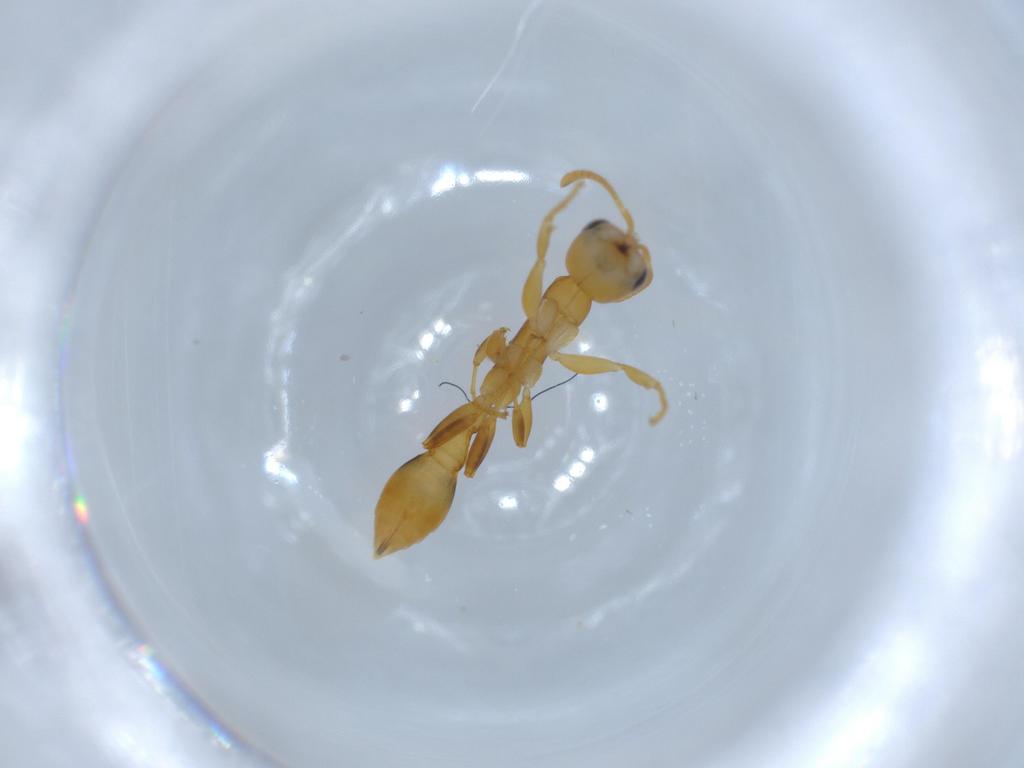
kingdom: Animalia
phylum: Arthropoda
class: Insecta
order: Hymenoptera
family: Formicidae
